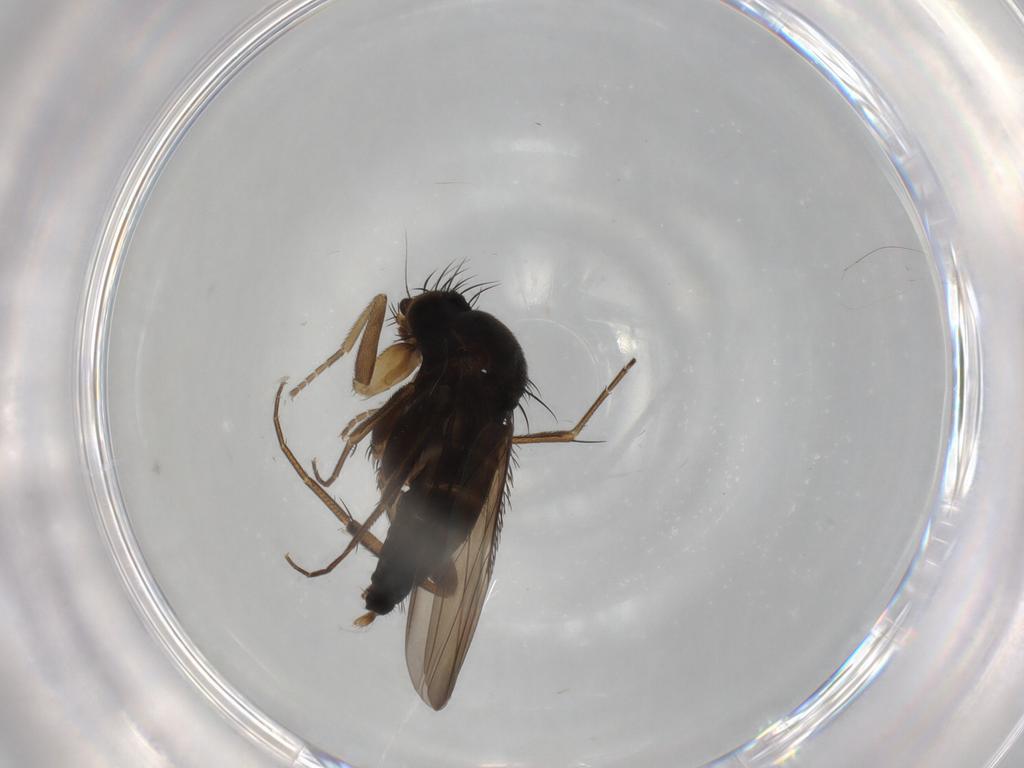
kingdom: Animalia
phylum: Arthropoda
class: Insecta
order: Diptera
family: Phoridae
